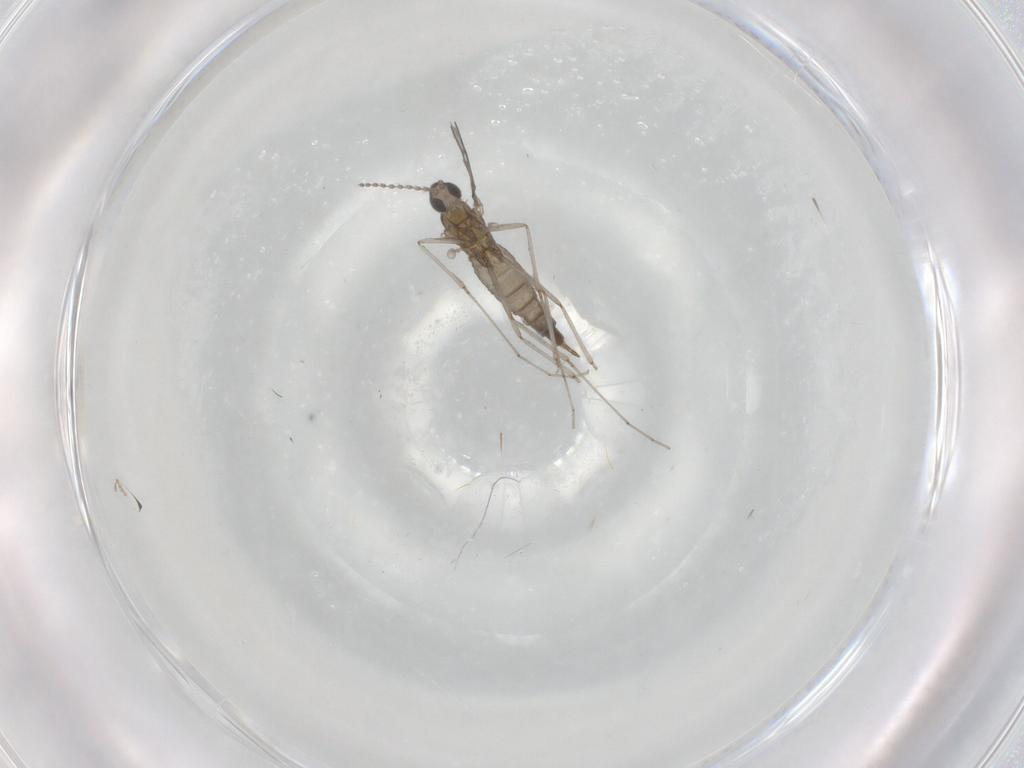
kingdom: Animalia
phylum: Arthropoda
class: Insecta
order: Diptera
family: Cecidomyiidae
